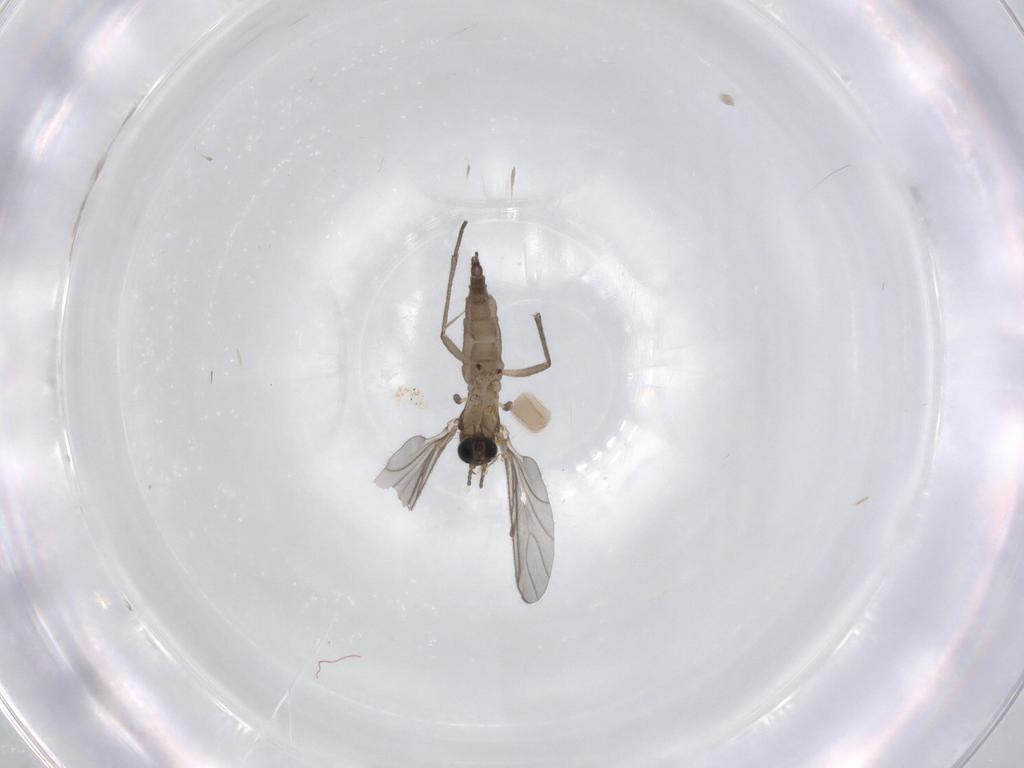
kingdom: Animalia
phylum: Arthropoda
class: Insecta
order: Diptera
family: Sciaridae
